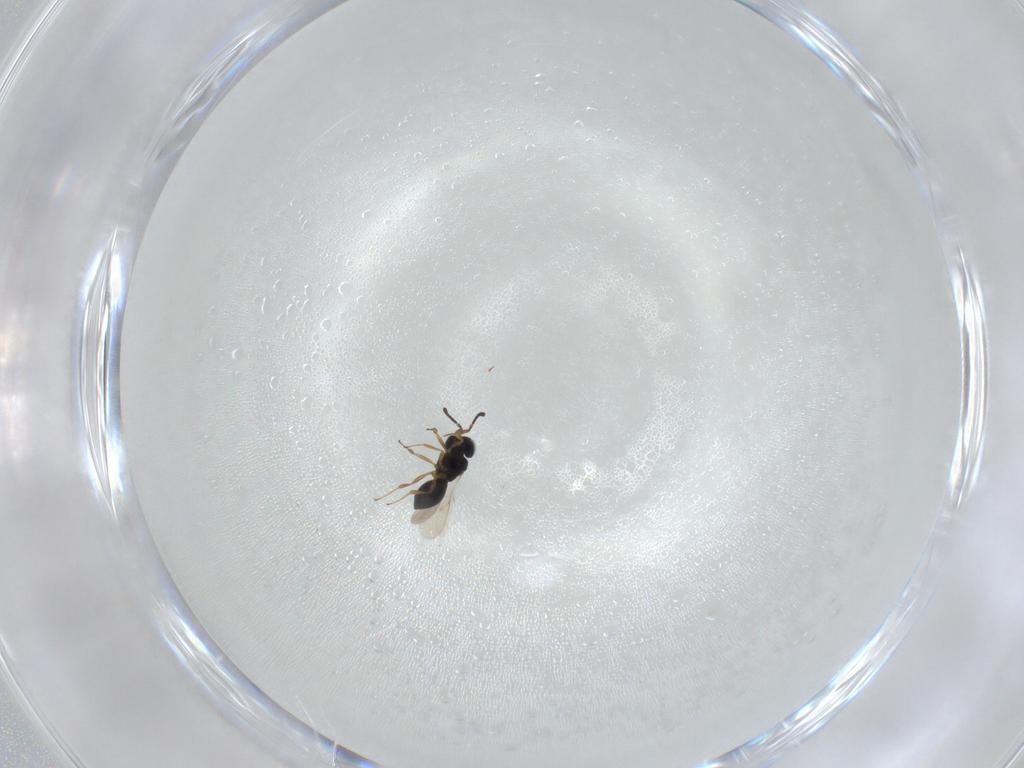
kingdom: Animalia
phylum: Arthropoda
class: Insecta
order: Hymenoptera
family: Scelionidae
